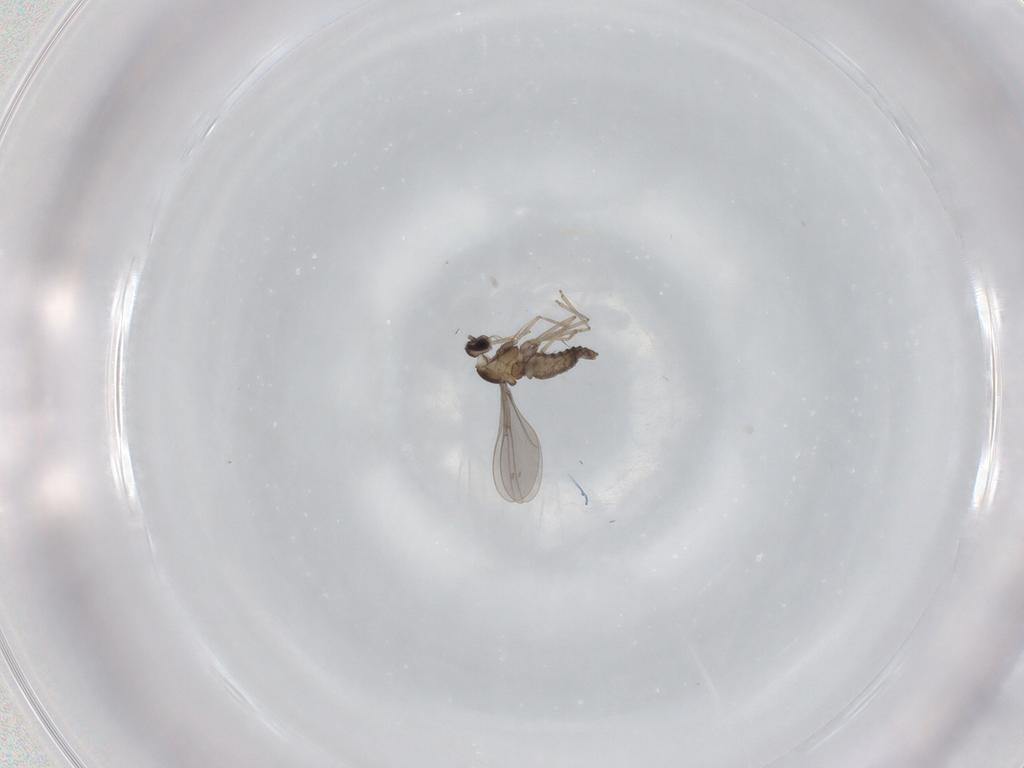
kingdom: Animalia
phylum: Arthropoda
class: Insecta
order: Diptera
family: Cecidomyiidae
